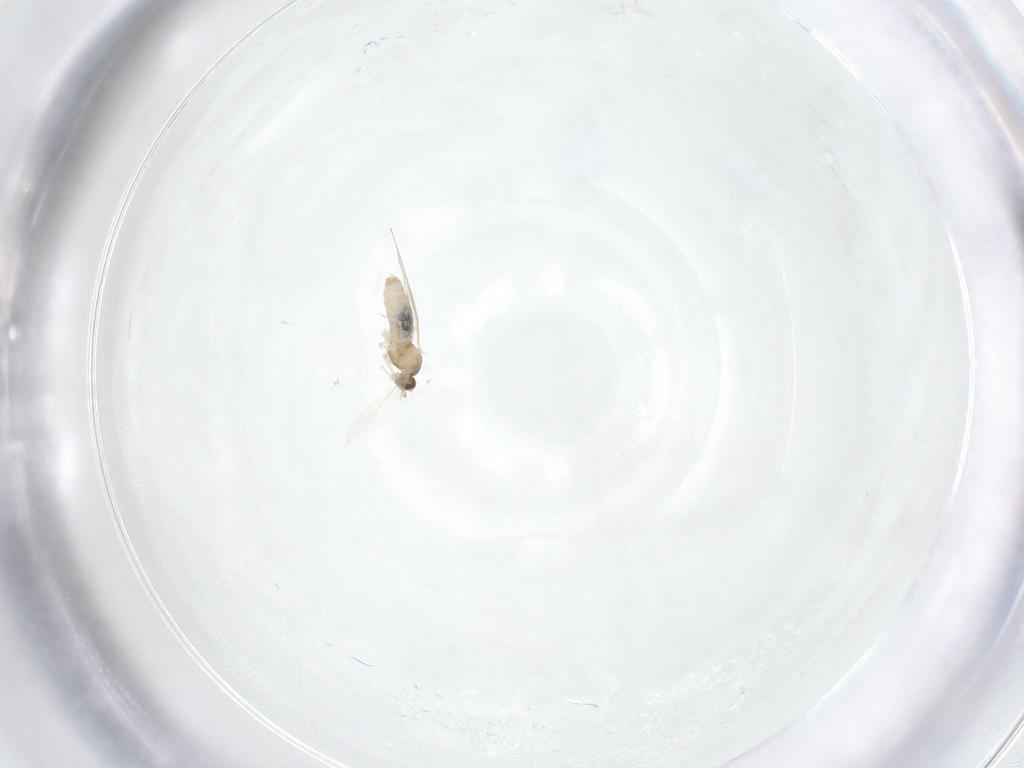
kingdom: Animalia
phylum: Arthropoda
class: Insecta
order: Diptera
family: Cecidomyiidae
